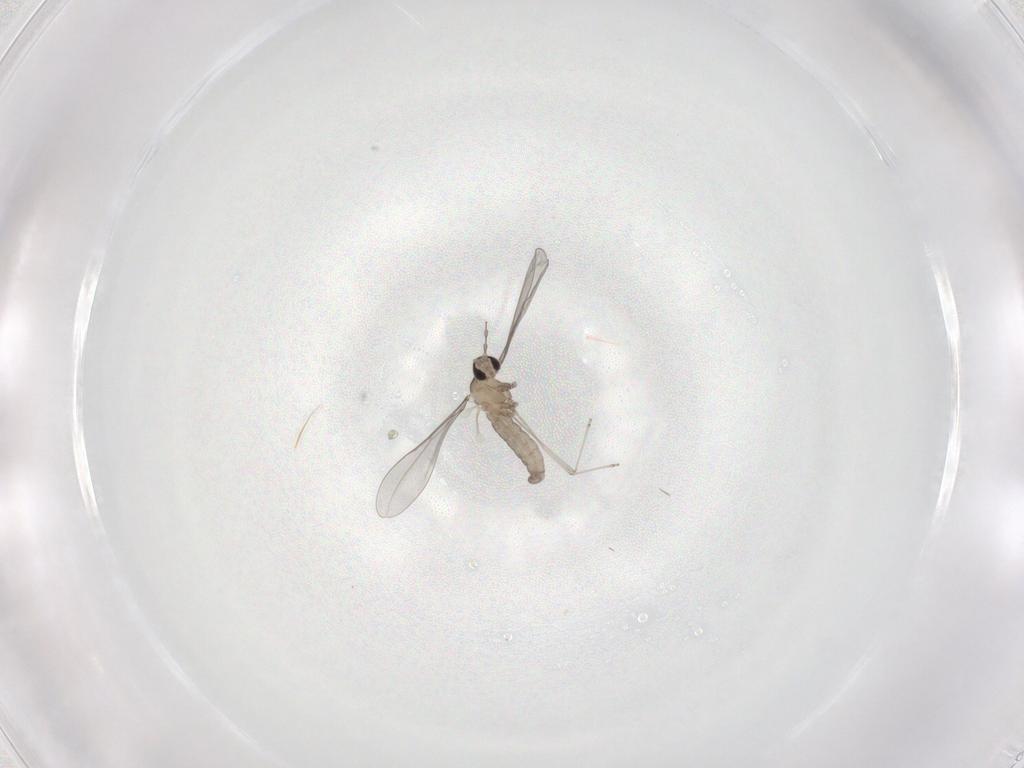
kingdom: Animalia
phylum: Arthropoda
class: Insecta
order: Diptera
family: Cecidomyiidae
